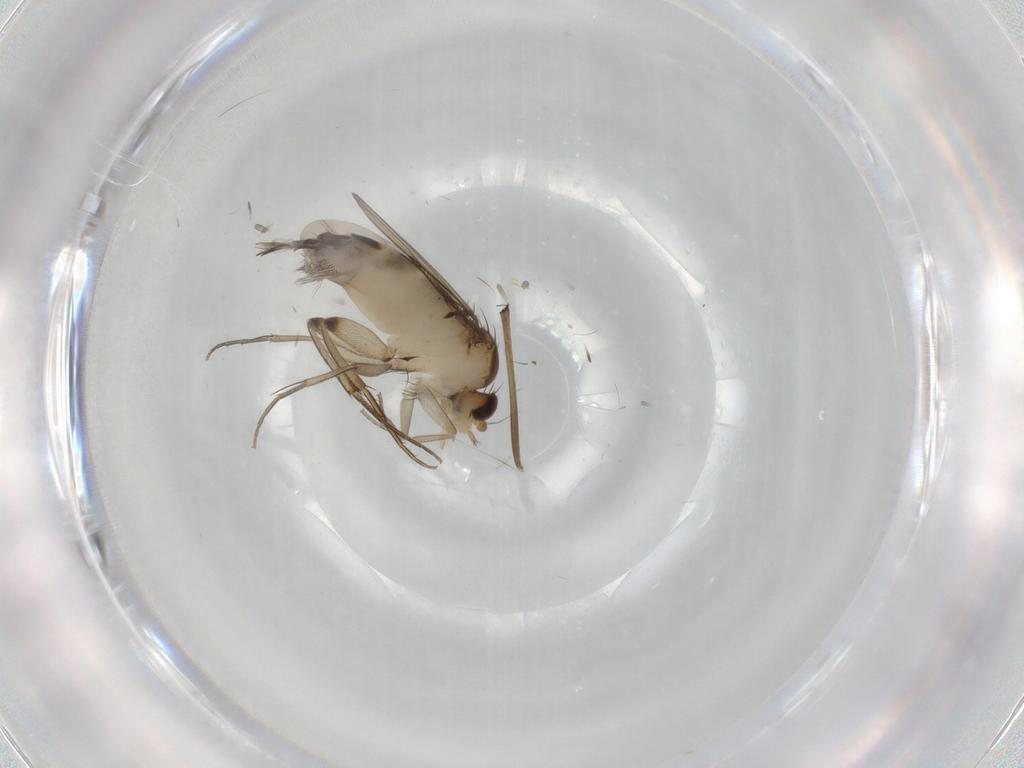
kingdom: Animalia
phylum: Arthropoda
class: Insecta
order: Diptera
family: Phoridae
